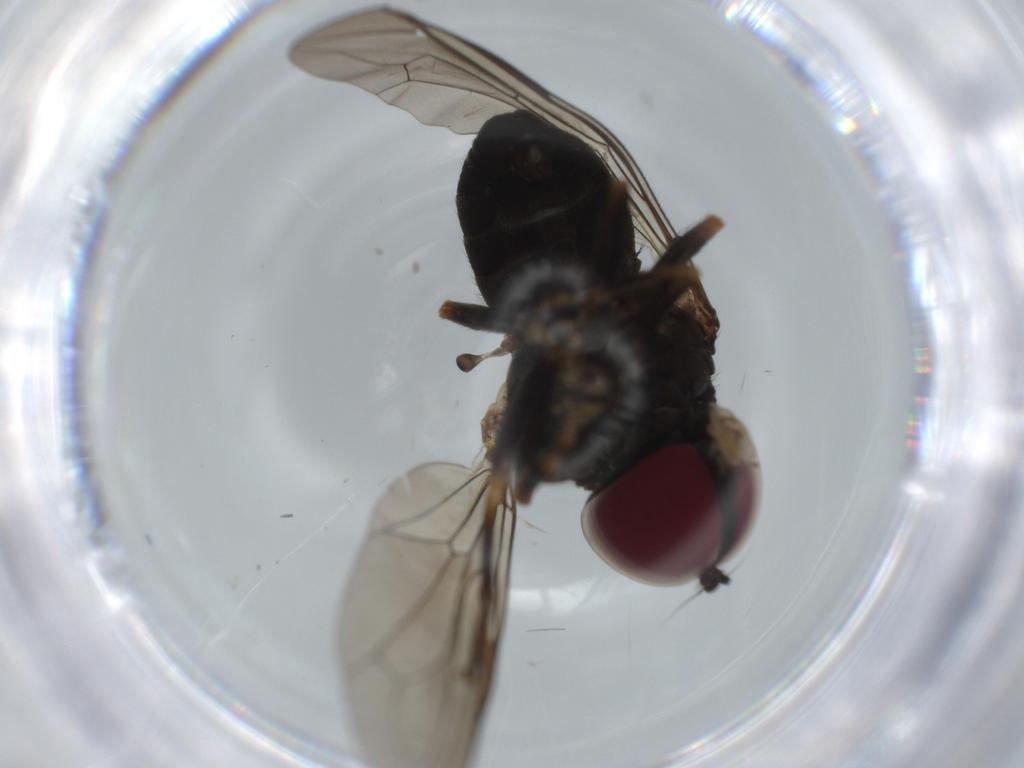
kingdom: Animalia
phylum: Arthropoda
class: Insecta
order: Diptera
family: Sciaridae
